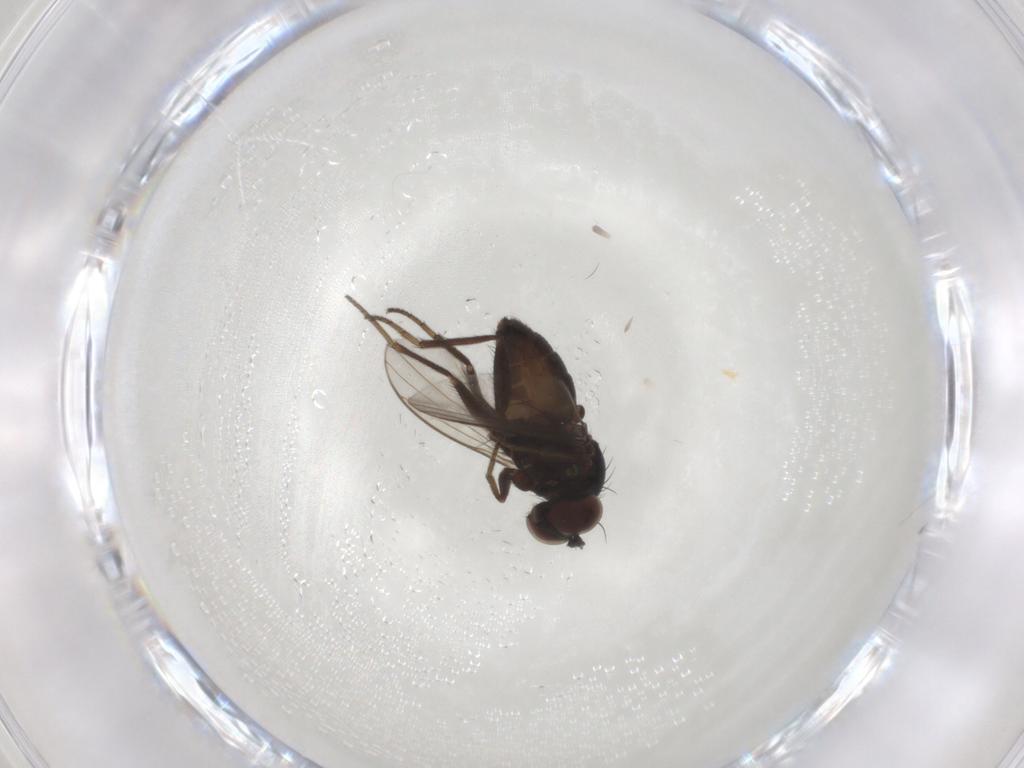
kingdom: Animalia
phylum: Arthropoda
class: Insecta
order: Diptera
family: Dolichopodidae
